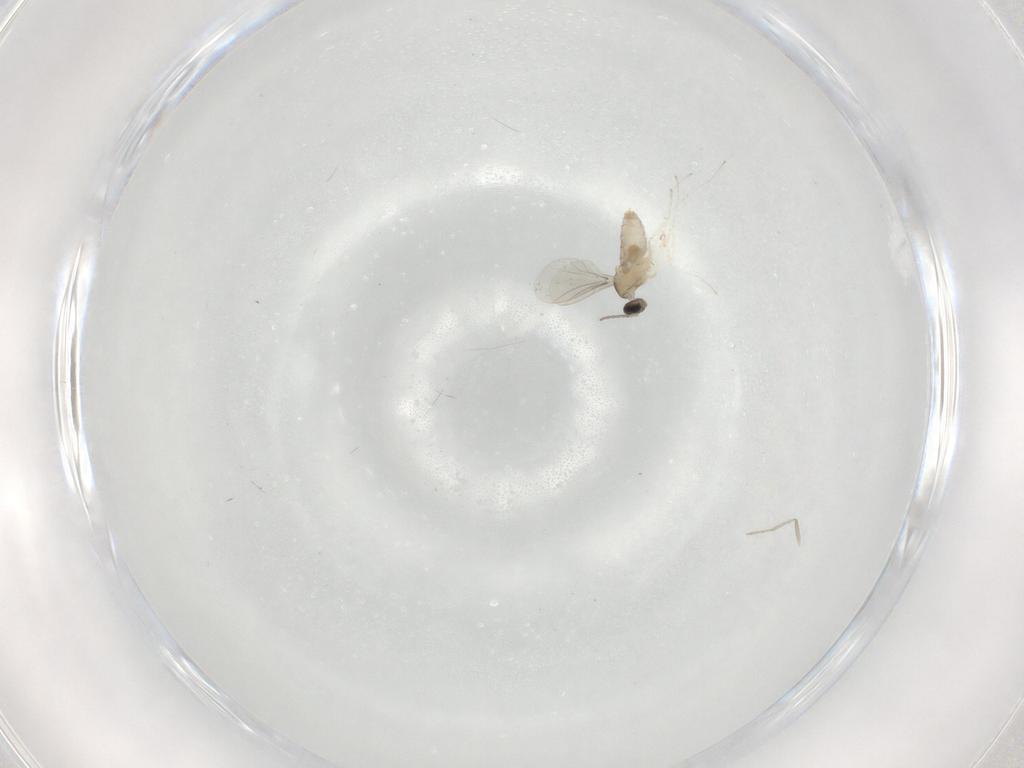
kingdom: Animalia
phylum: Arthropoda
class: Insecta
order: Diptera
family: Cecidomyiidae
